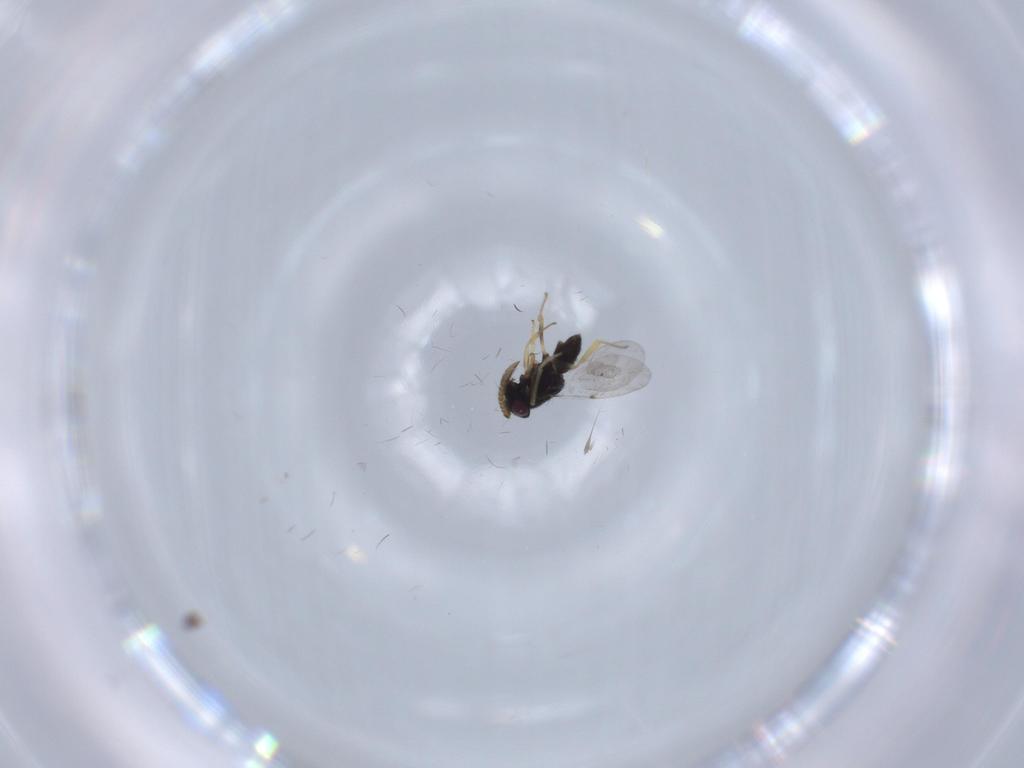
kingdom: Animalia
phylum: Arthropoda
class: Insecta
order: Hymenoptera
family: Encyrtidae
